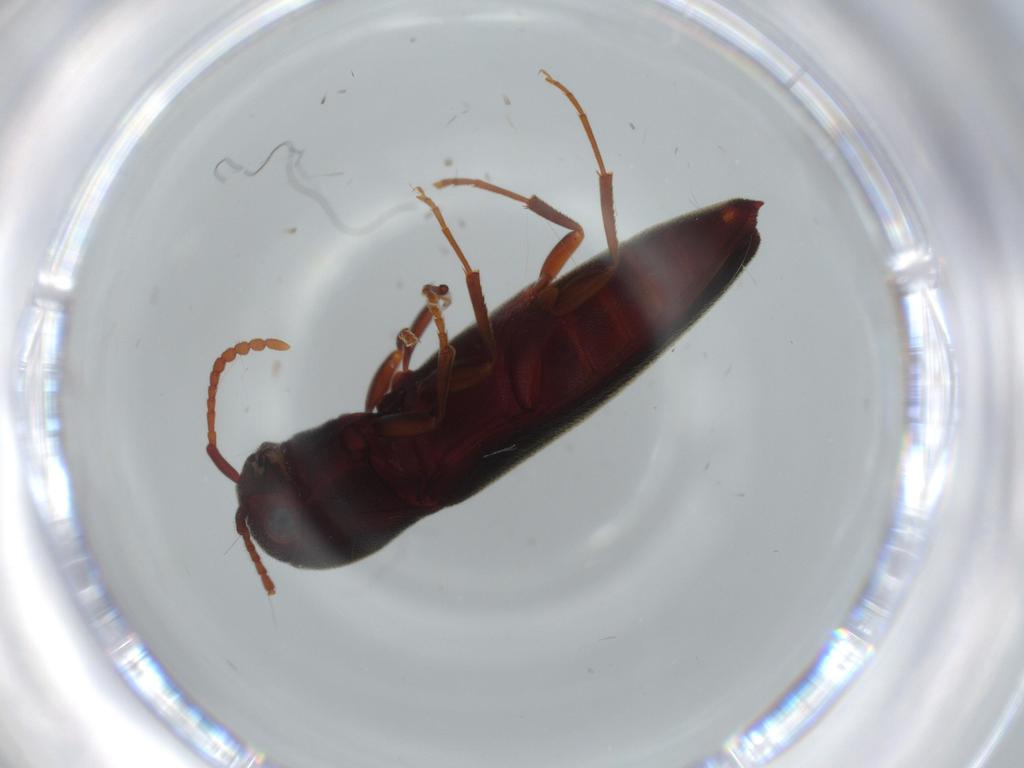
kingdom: Animalia
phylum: Arthropoda
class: Insecta
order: Coleoptera
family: Eucnemidae
